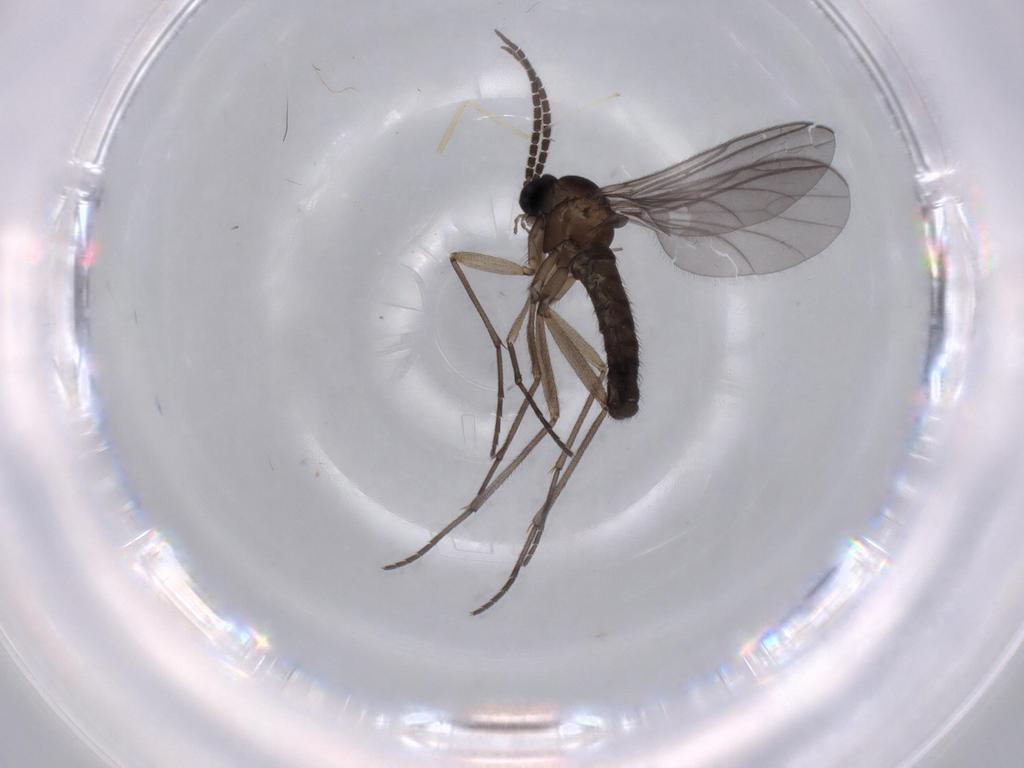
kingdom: Animalia
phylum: Arthropoda
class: Insecta
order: Diptera
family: Sciaridae
